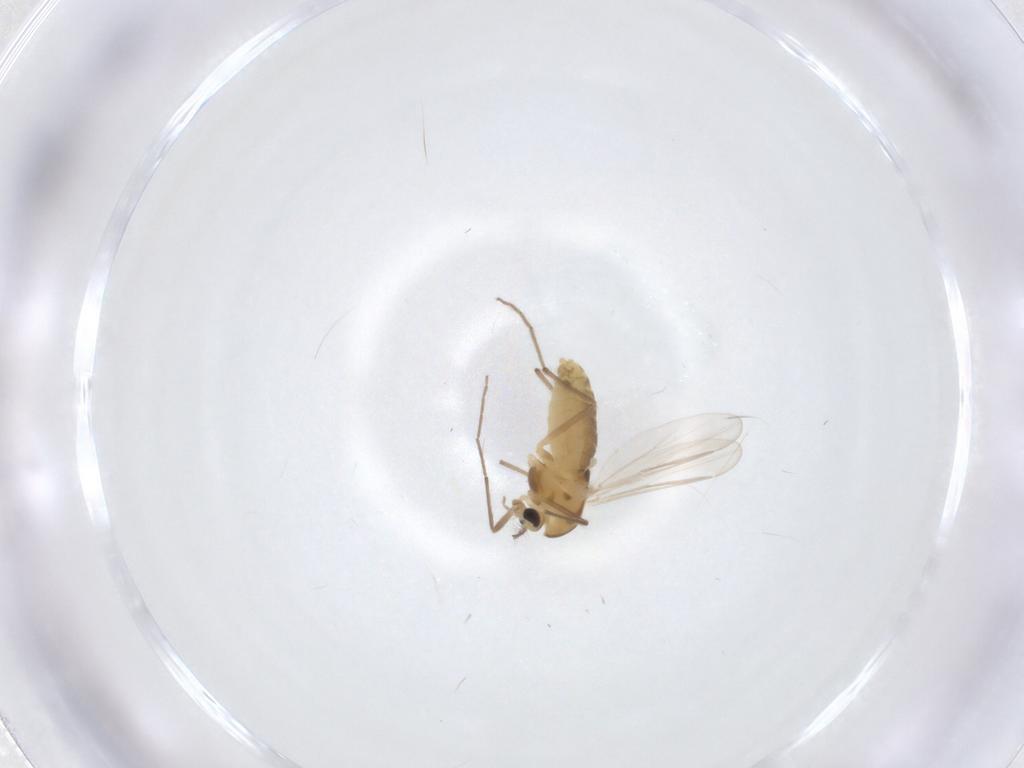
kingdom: Animalia
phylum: Arthropoda
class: Insecta
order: Diptera
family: Chironomidae
